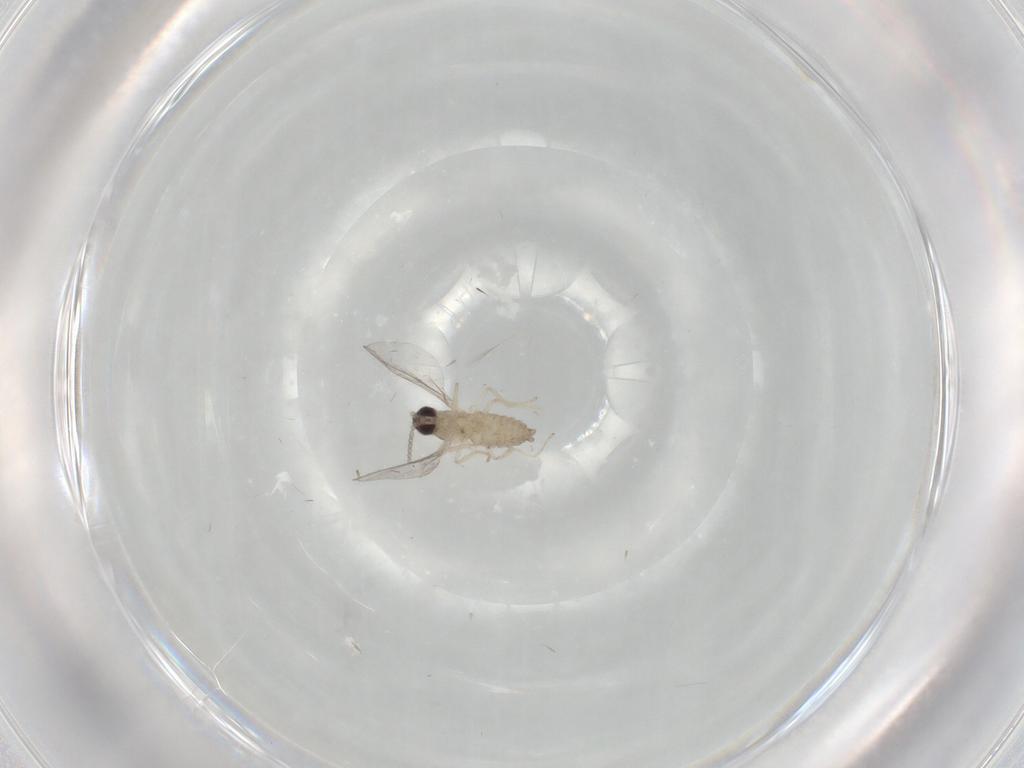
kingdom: Animalia
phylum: Arthropoda
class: Insecta
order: Diptera
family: Cecidomyiidae
